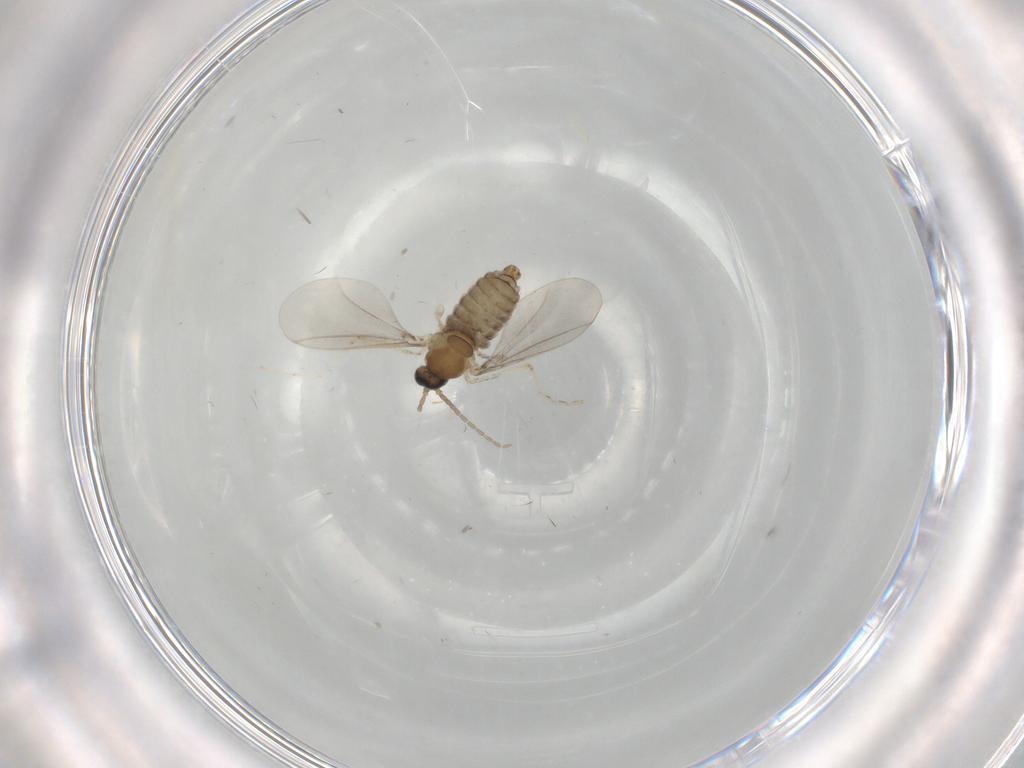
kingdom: Animalia
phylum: Arthropoda
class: Insecta
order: Diptera
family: Cecidomyiidae
